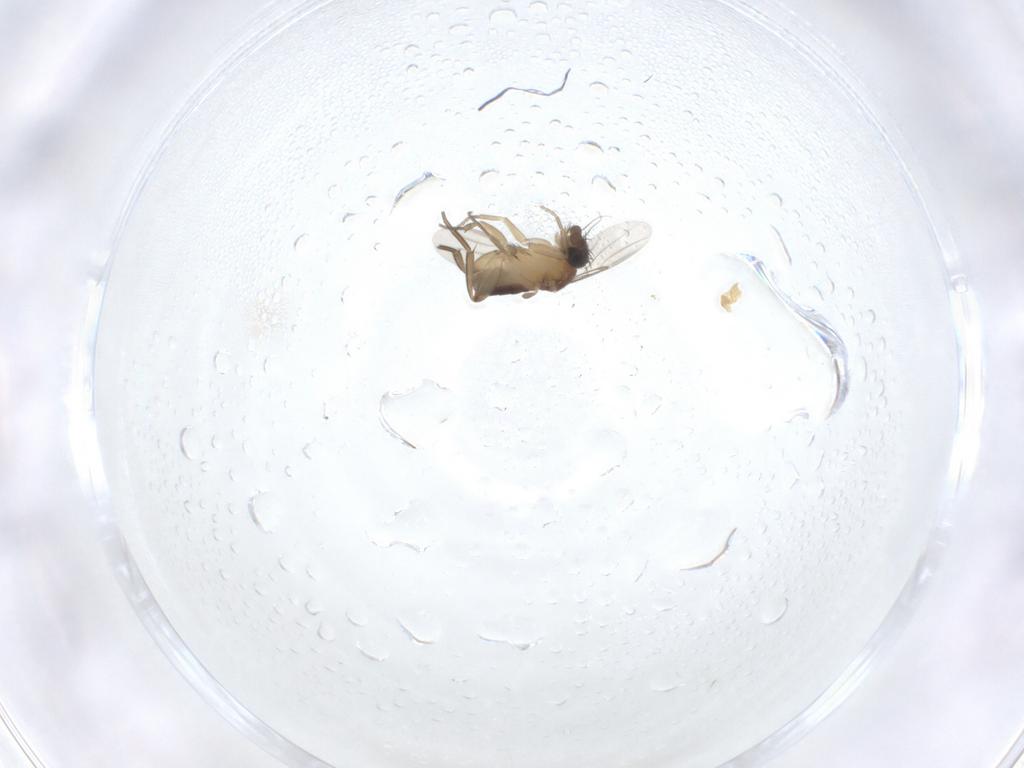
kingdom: Animalia
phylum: Arthropoda
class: Insecta
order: Diptera
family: Phoridae
